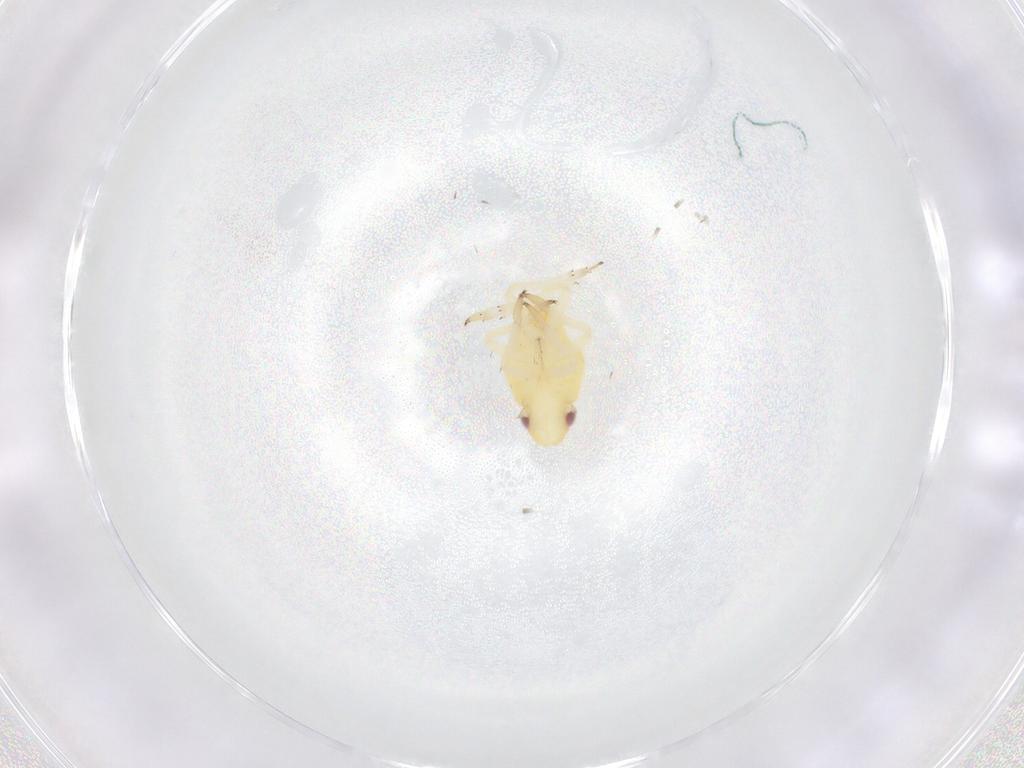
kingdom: Animalia
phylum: Arthropoda
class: Insecta
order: Hemiptera
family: Caliscelidae
